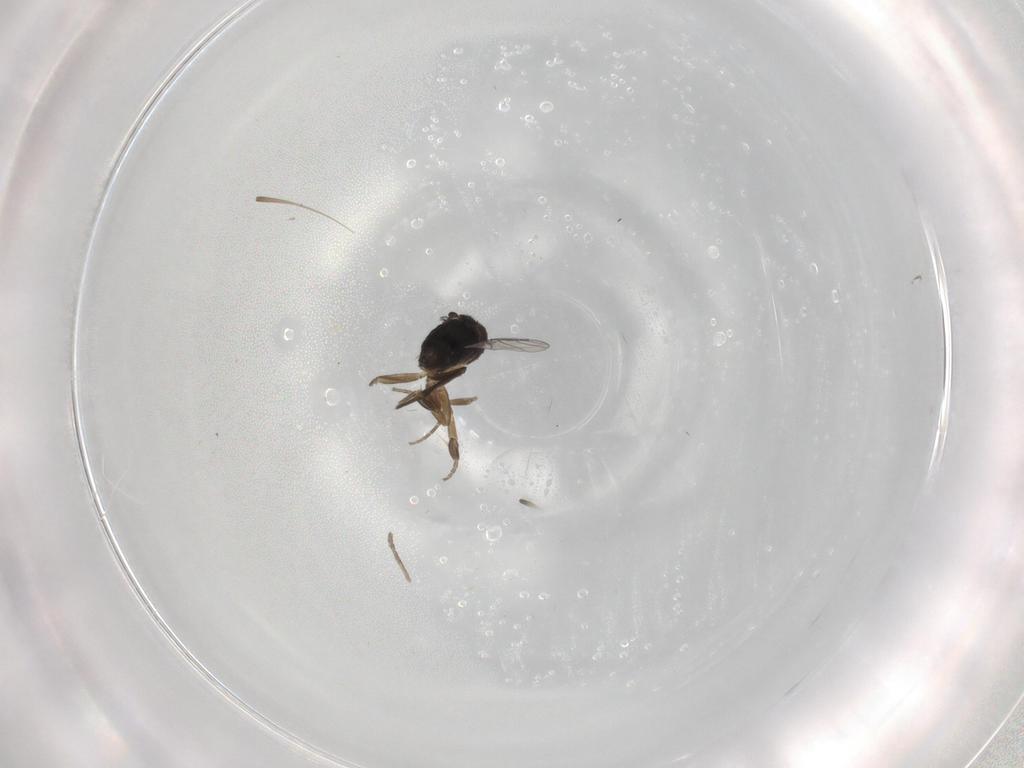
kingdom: Animalia
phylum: Arthropoda
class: Insecta
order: Diptera
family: Phoridae
